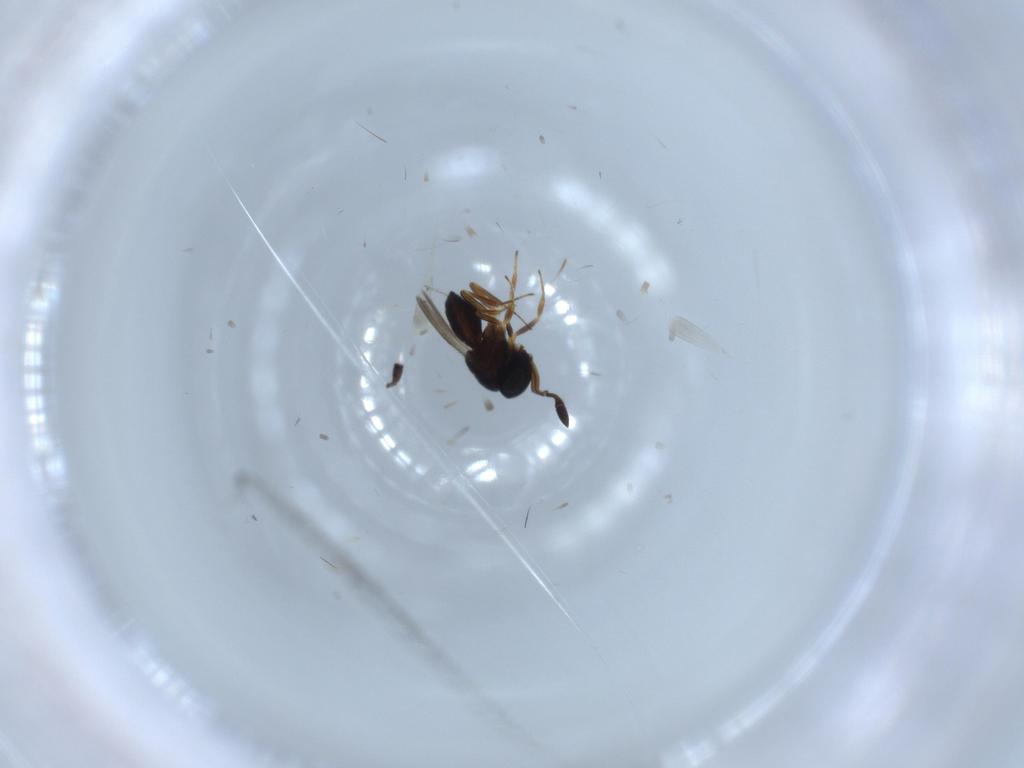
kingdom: Animalia
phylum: Arthropoda
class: Insecta
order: Hymenoptera
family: Scelionidae
